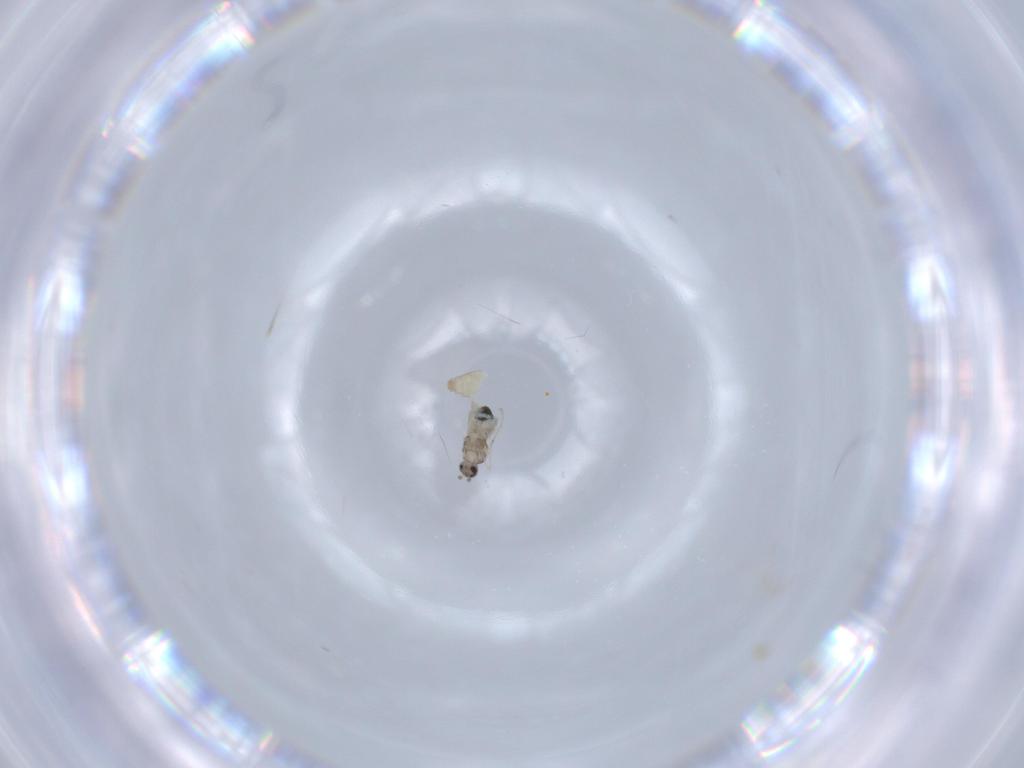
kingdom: Animalia
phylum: Arthropoda
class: Insecta
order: Diptera
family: Cecidomyiidae
